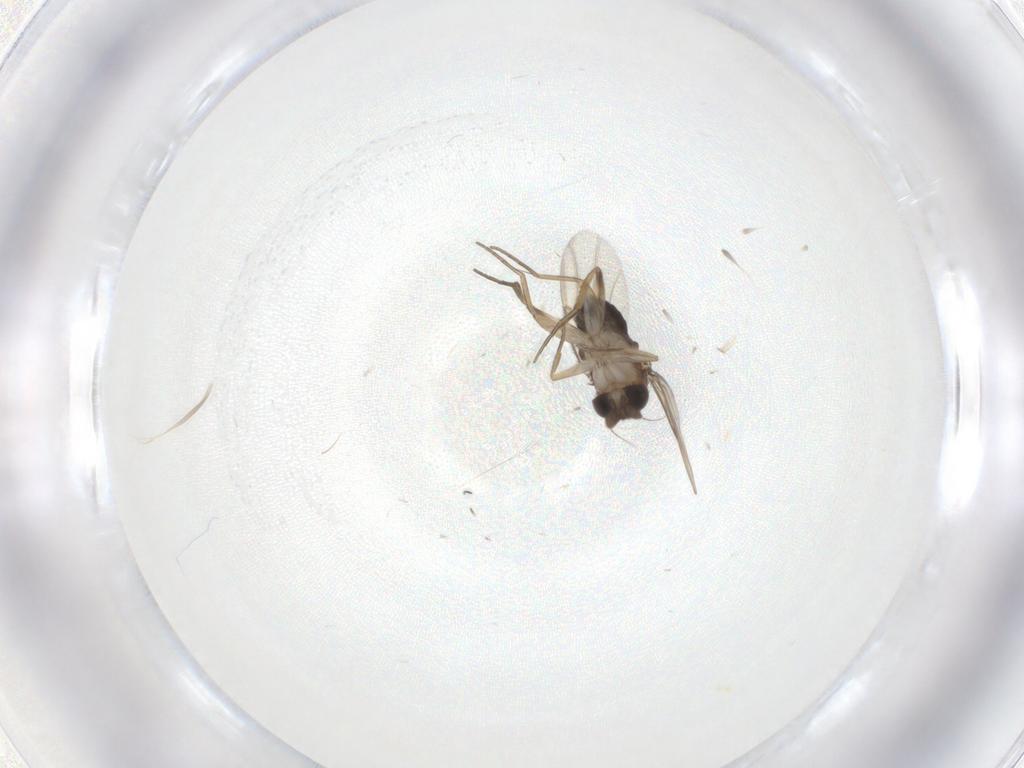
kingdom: Animalia
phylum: Arthropoda
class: Insecta
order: Diptera
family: Phoridae
